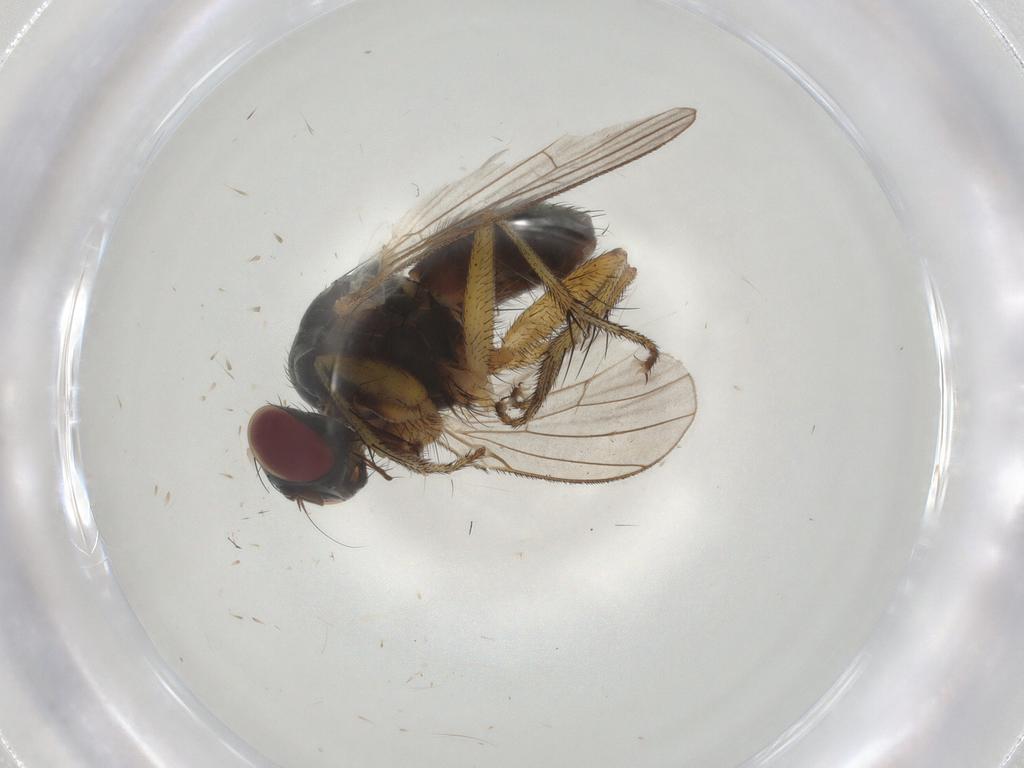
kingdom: Animalia
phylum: Arthropoda
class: Insecta
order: Diptera
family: Muscidae
